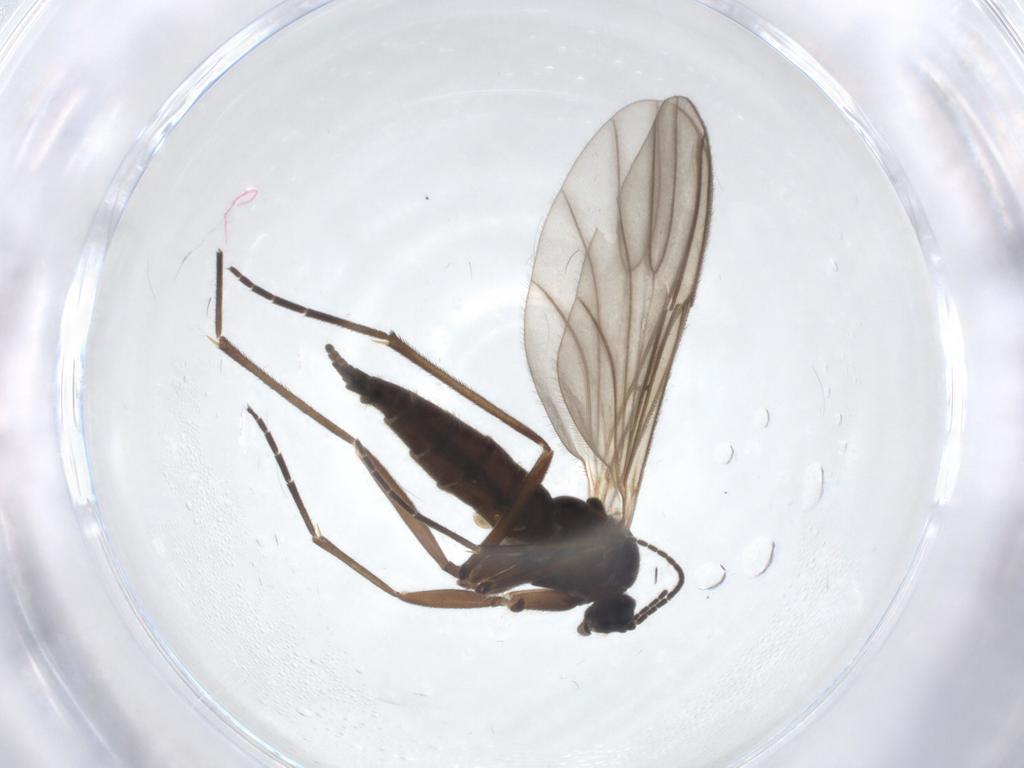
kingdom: Animalia
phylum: Arthropoda
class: Insecta
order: Diptera
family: Sciaridae
